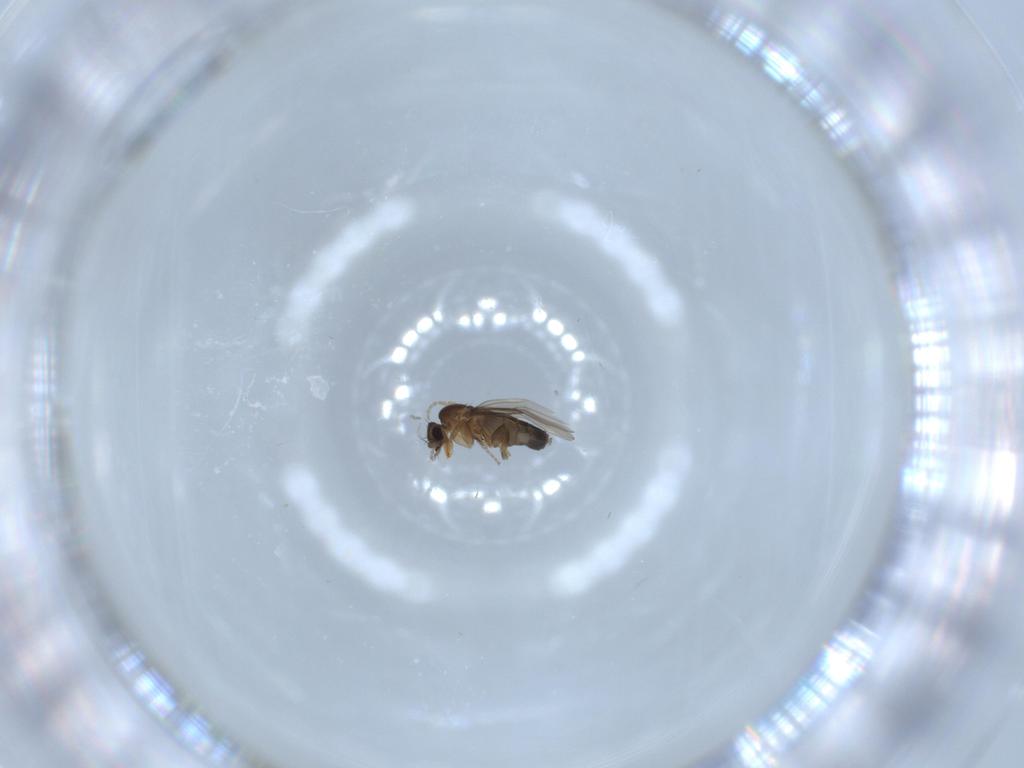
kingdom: Animalia
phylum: Arthropoda
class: Insecta
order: Diptera
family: Phoridae
